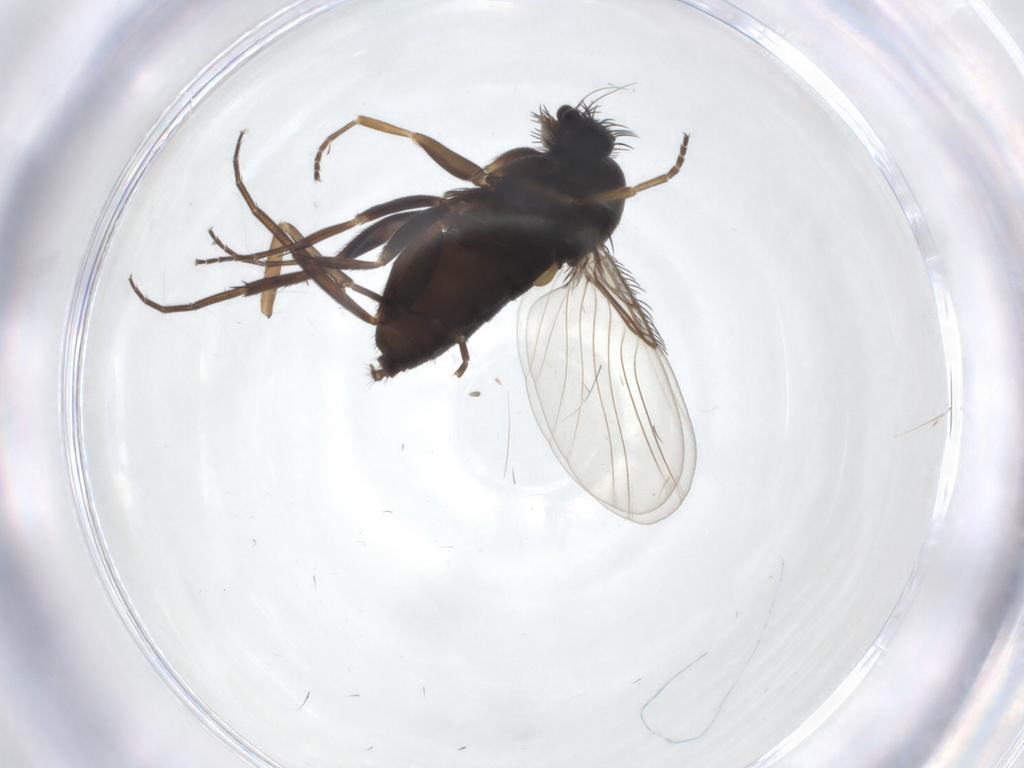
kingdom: Animalia
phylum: Arthropoda
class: Insecta
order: Diptera
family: Phoridae
